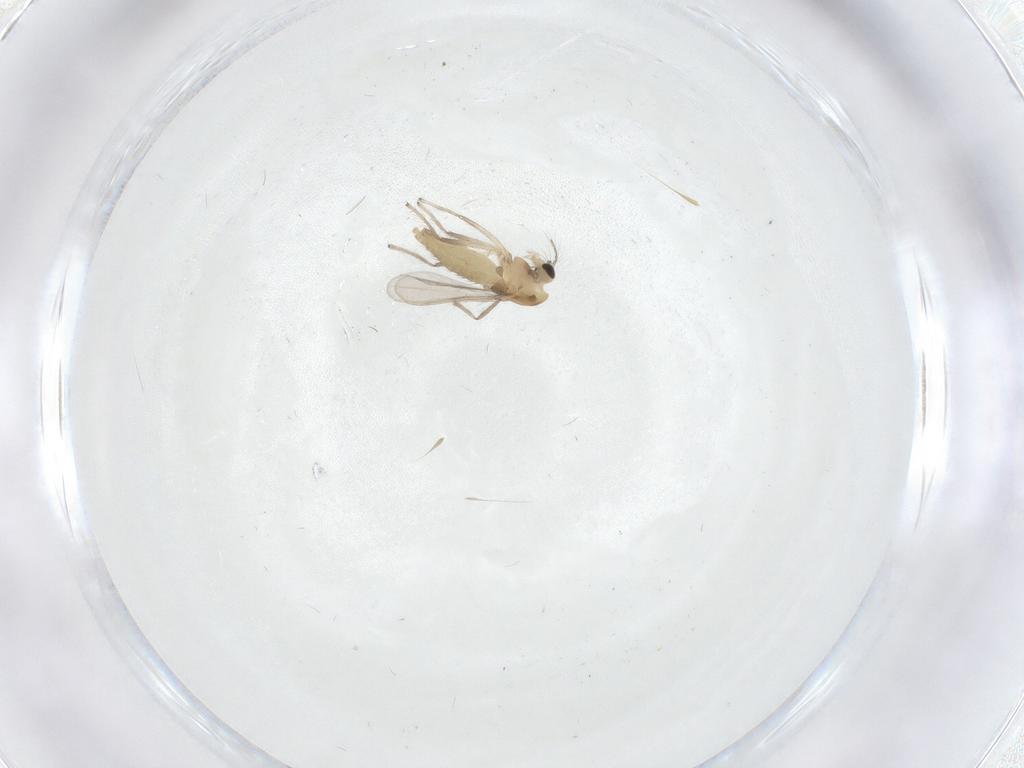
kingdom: Animalia
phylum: Arthropoda
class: Insecta
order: Diptera
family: Chironomidae
